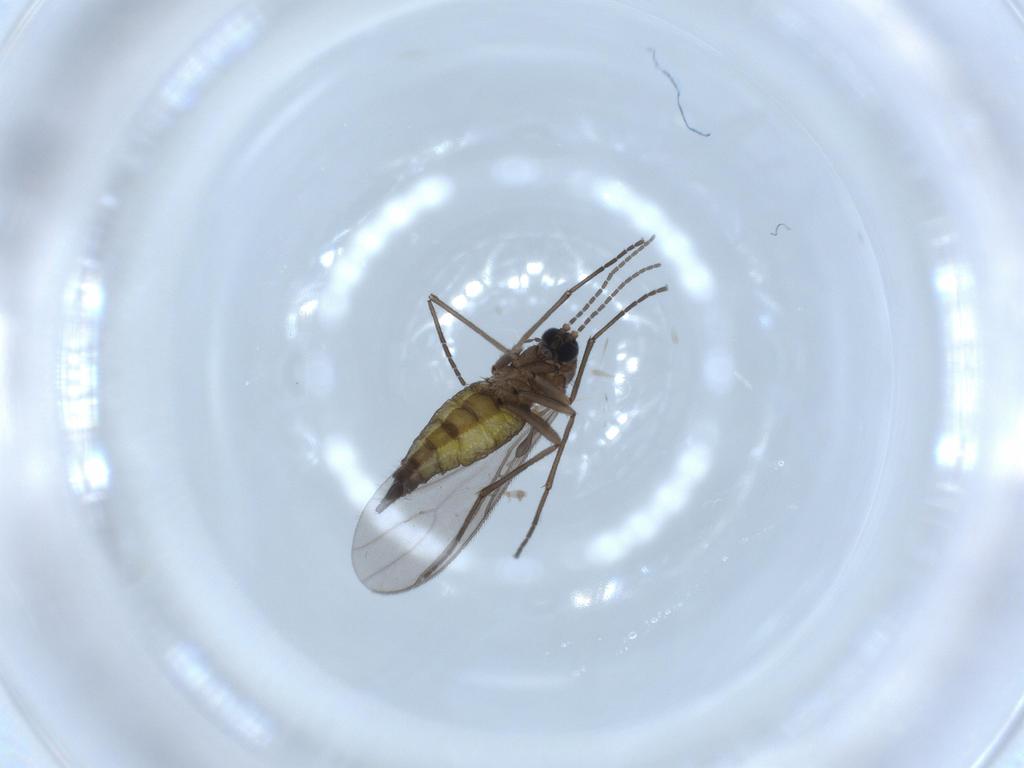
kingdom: Animalia
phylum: Arthropoda
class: Insecta
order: Diptera
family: Sciaridae
